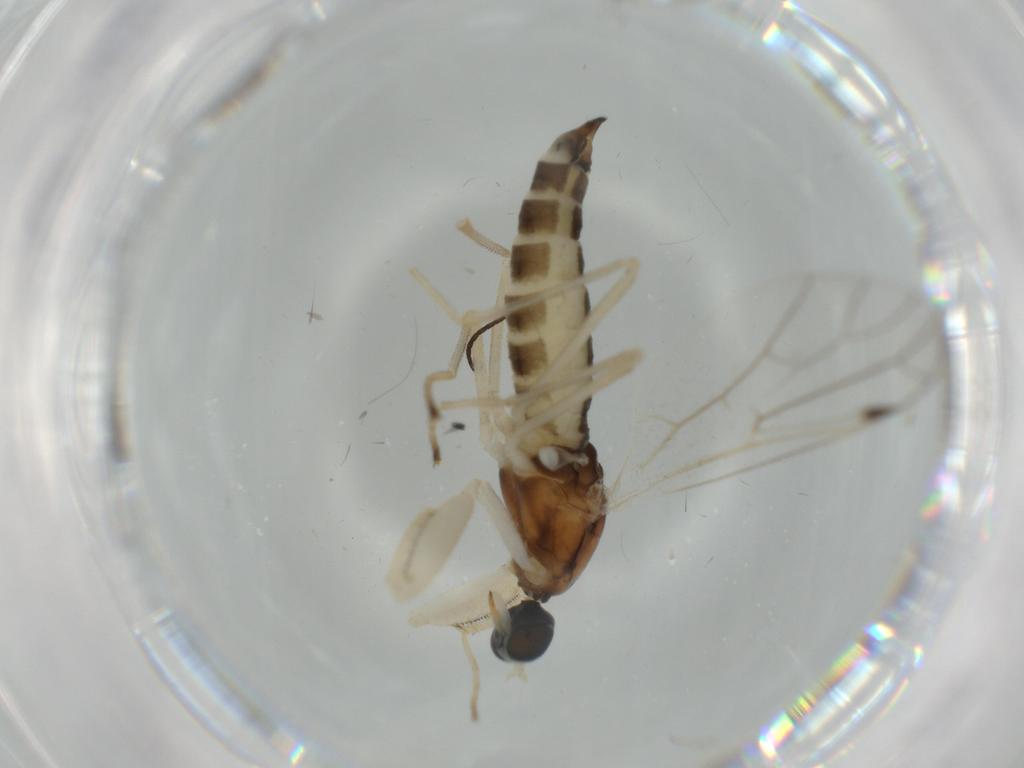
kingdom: Animalia
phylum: Arthropoda
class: Insecta
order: Diptera
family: Empididae
